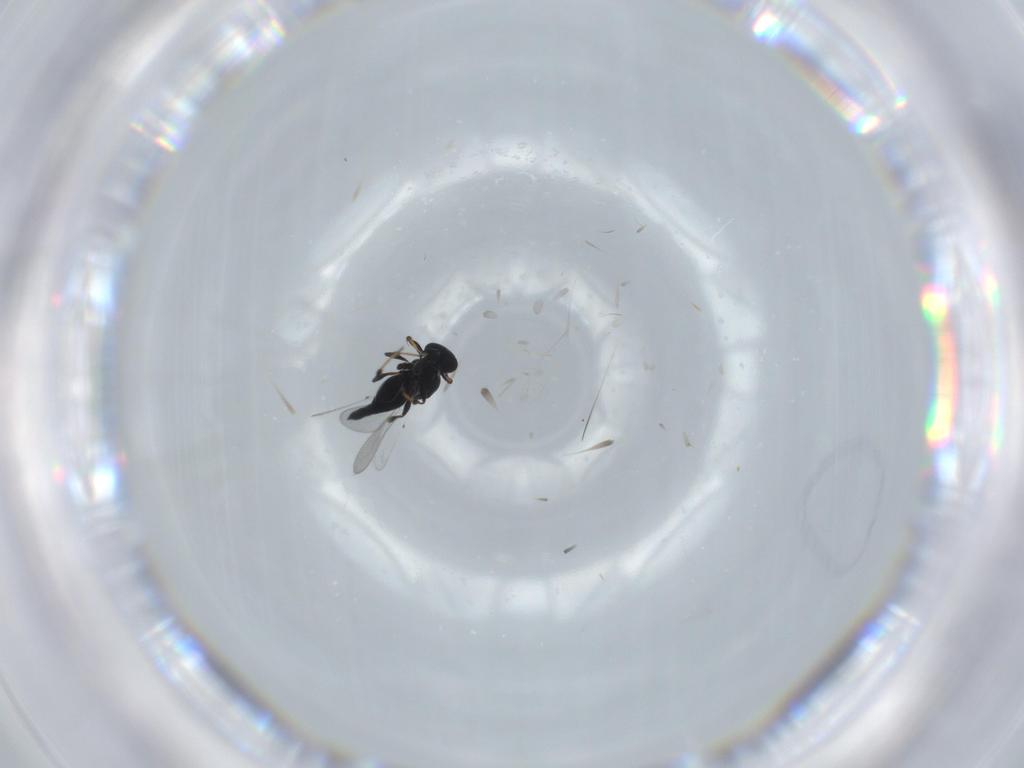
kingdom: Animalia
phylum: Arthropoda
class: Insecta
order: Hymenoptera
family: Platygastridae
